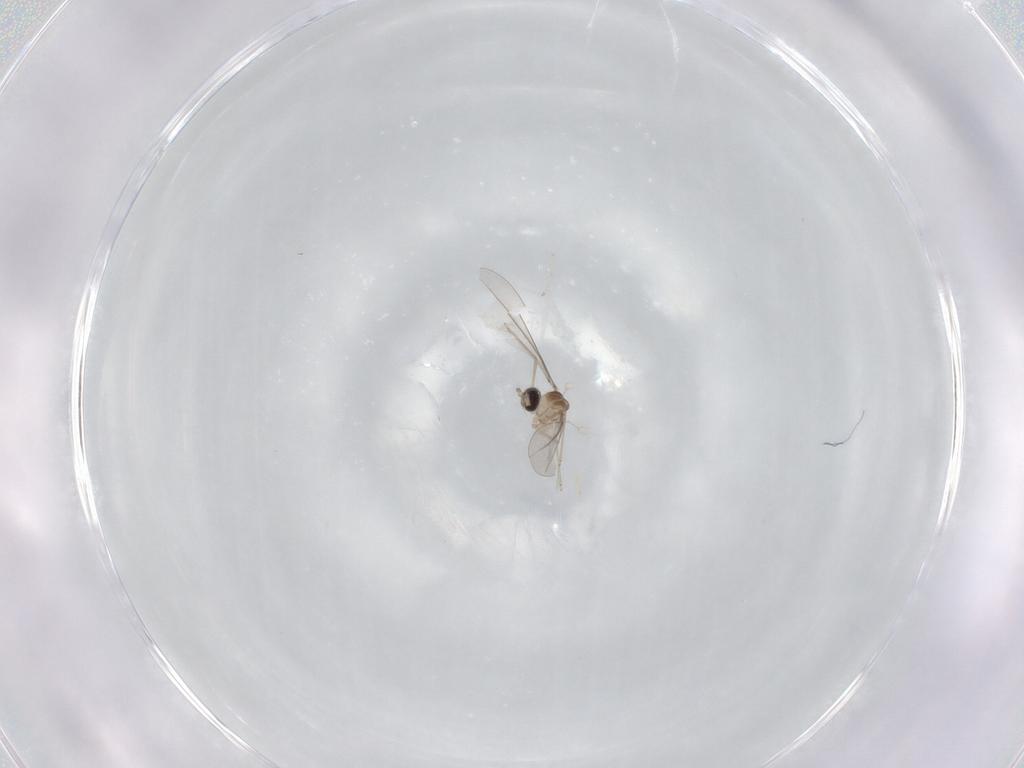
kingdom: Animalia
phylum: Arthropoda
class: Insecta
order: Diptera
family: Cecidomyiidae
